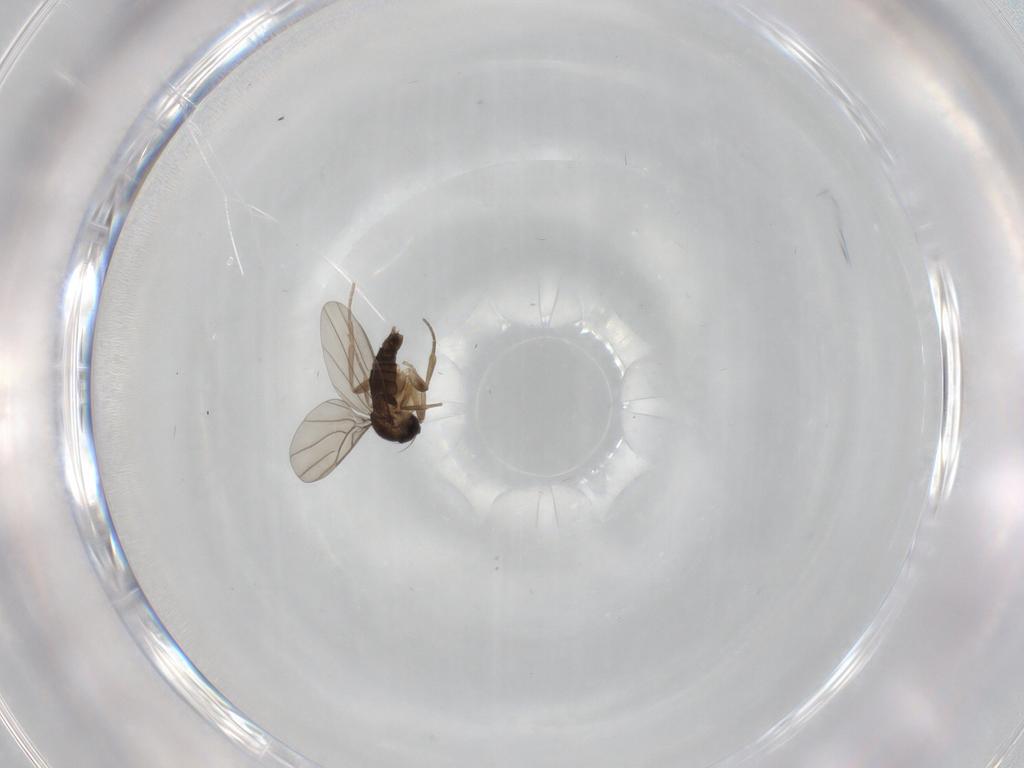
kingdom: Animalia
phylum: Arthropoda
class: Insecta
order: Diptera
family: Phoridae
